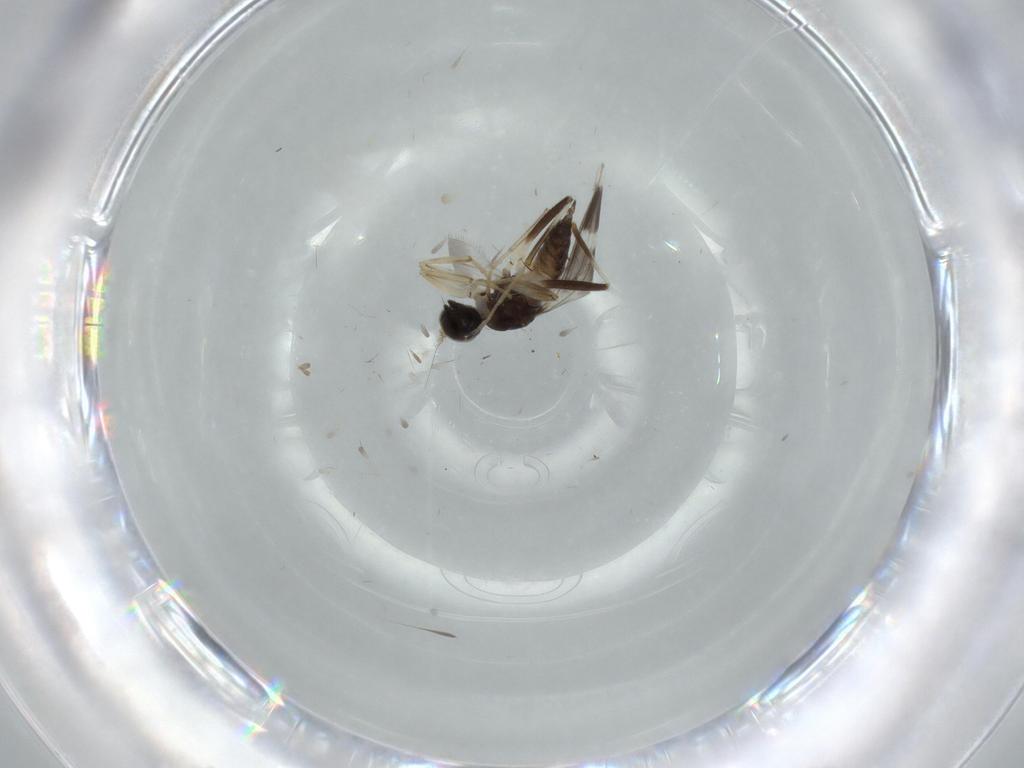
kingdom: Animalia
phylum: Arthropoda
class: Insecta
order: Diptera
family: Hybotidae
